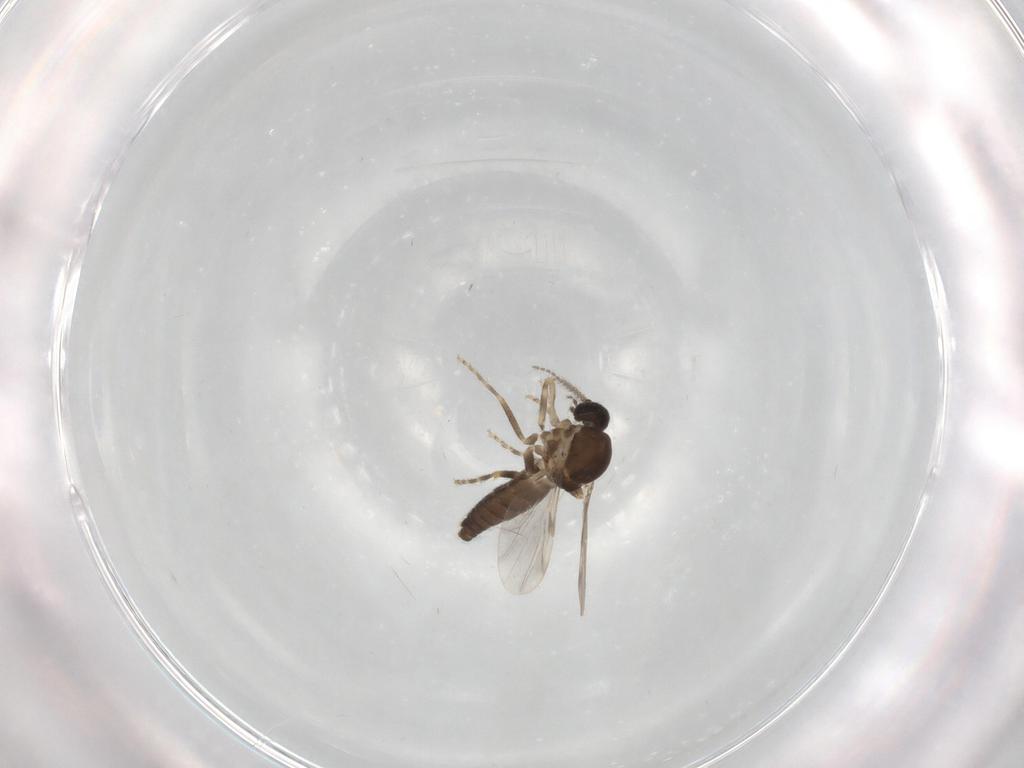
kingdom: Animalia
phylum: Arthropoda
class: Insecta
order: Diptera
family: Ceratopogonidae
